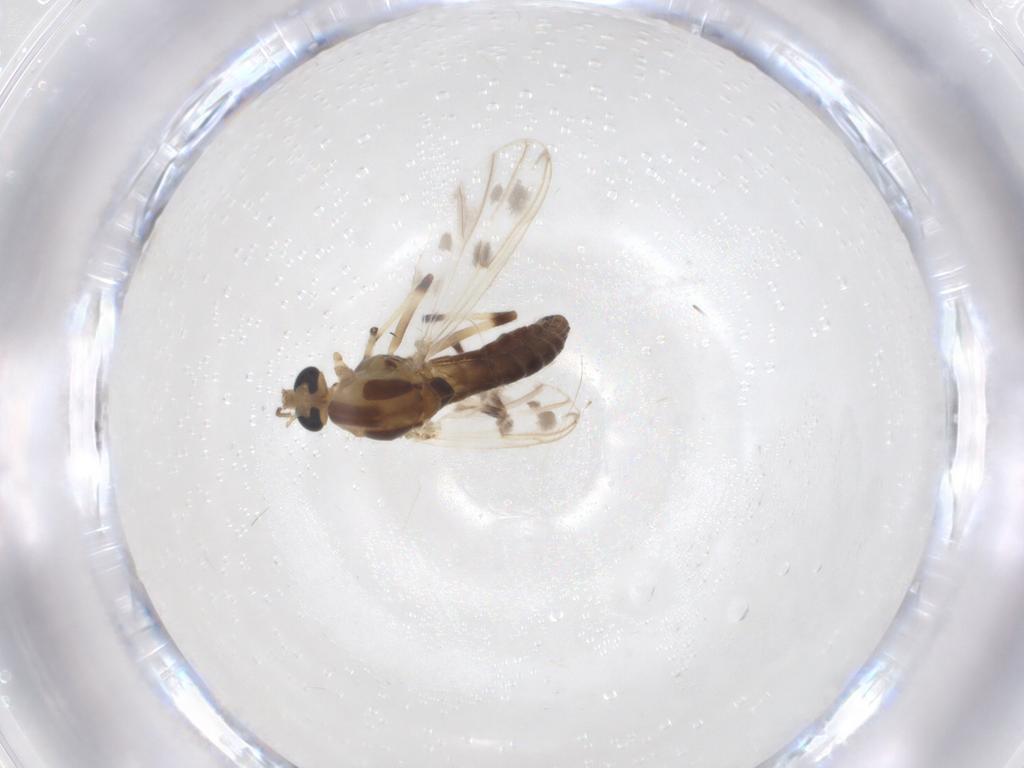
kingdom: Animalia
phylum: Arthropoda
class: Insecta
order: Diptera
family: Chironomidae
